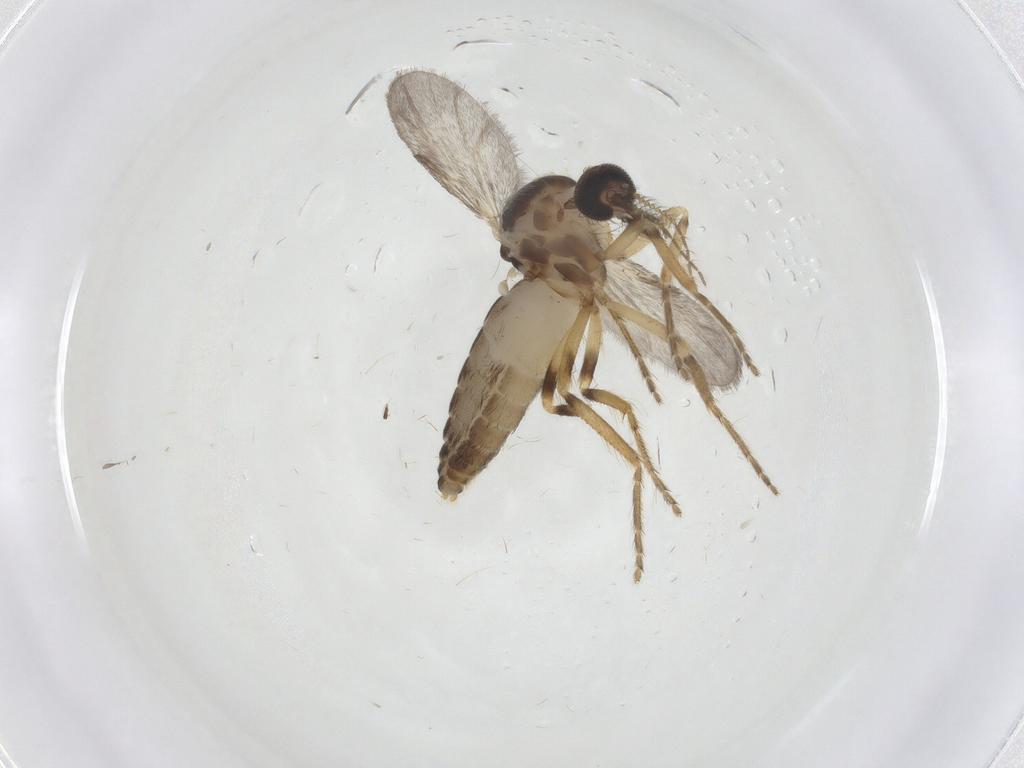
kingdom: Animalia
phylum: Arthropoda
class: Insecta
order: Diptera
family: Ceratopogonidae
